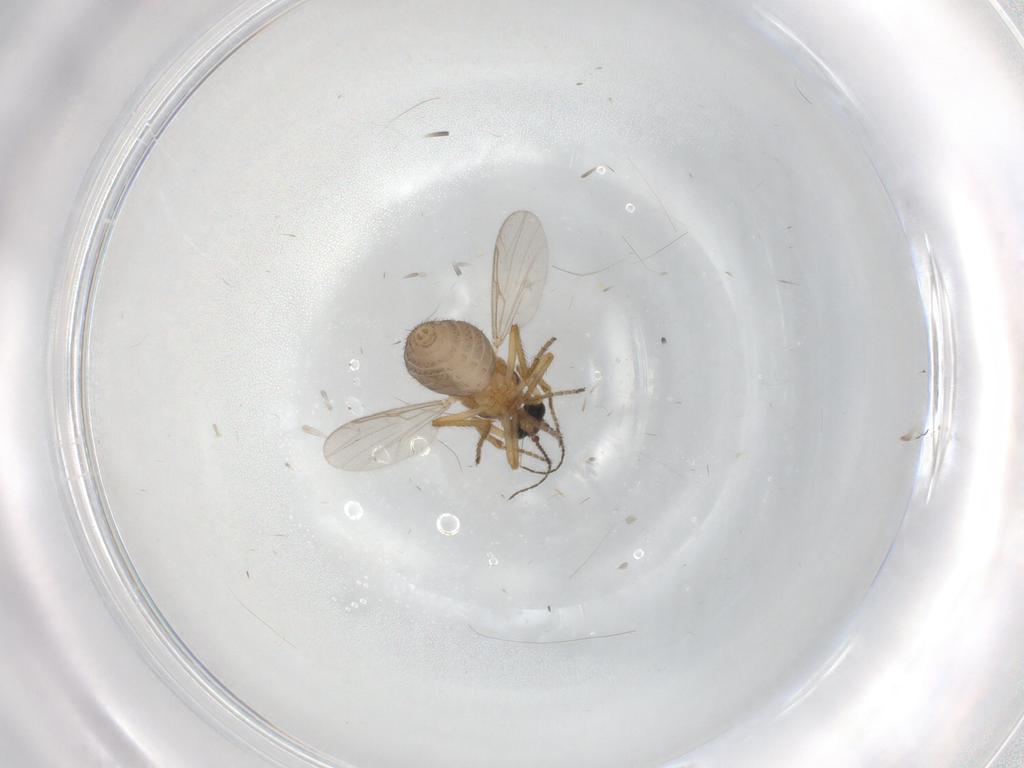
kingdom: Animalia
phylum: Arthropoda
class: Insecta
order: Diptera
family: Ceratopogonidae
